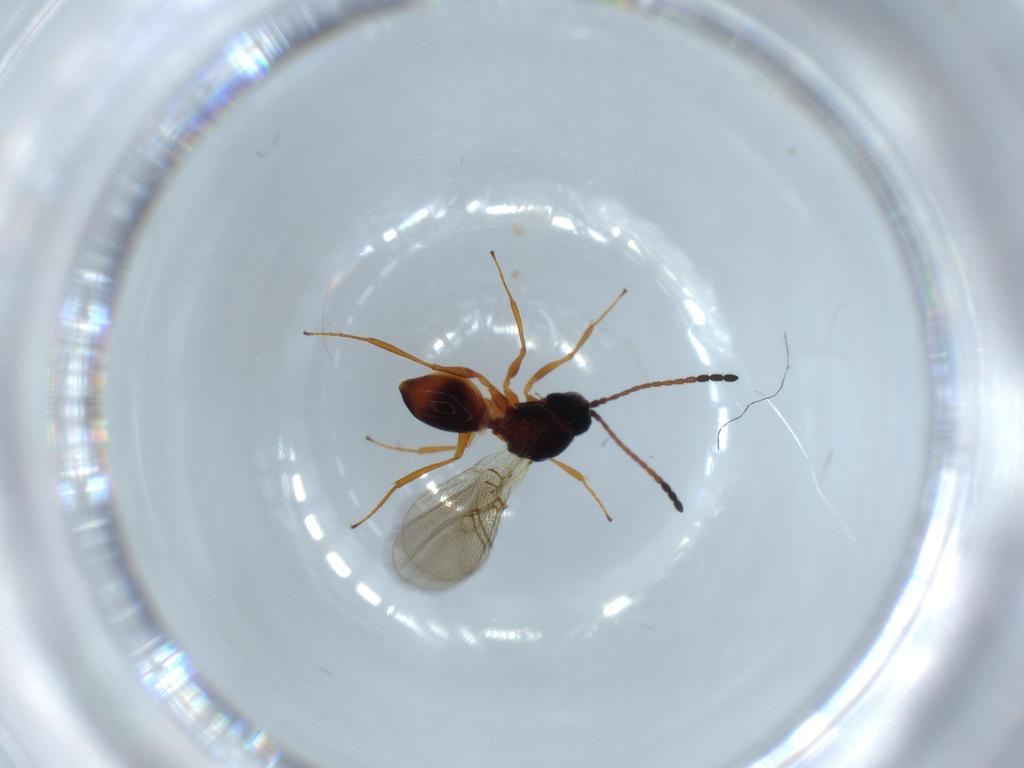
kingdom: Animalia
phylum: Arthropoda
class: Insecta
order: Hymenoptera
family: Figitidae
